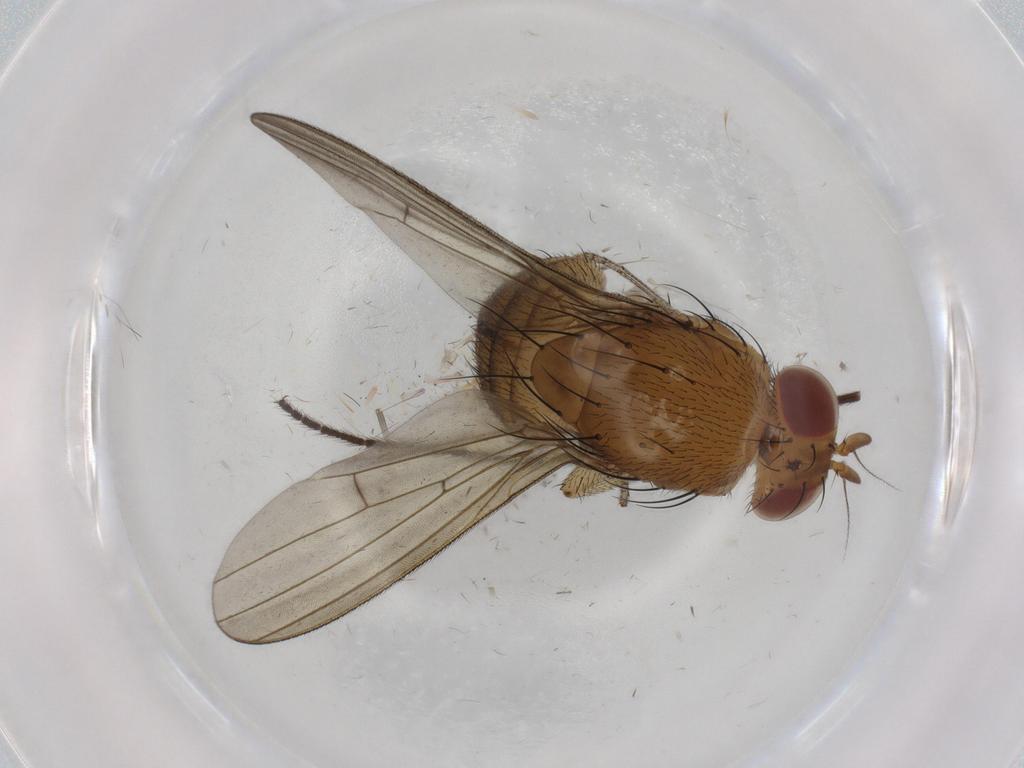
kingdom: Animalia
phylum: Arthropoda
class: Insecta
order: Diptera
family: Chironomidae
